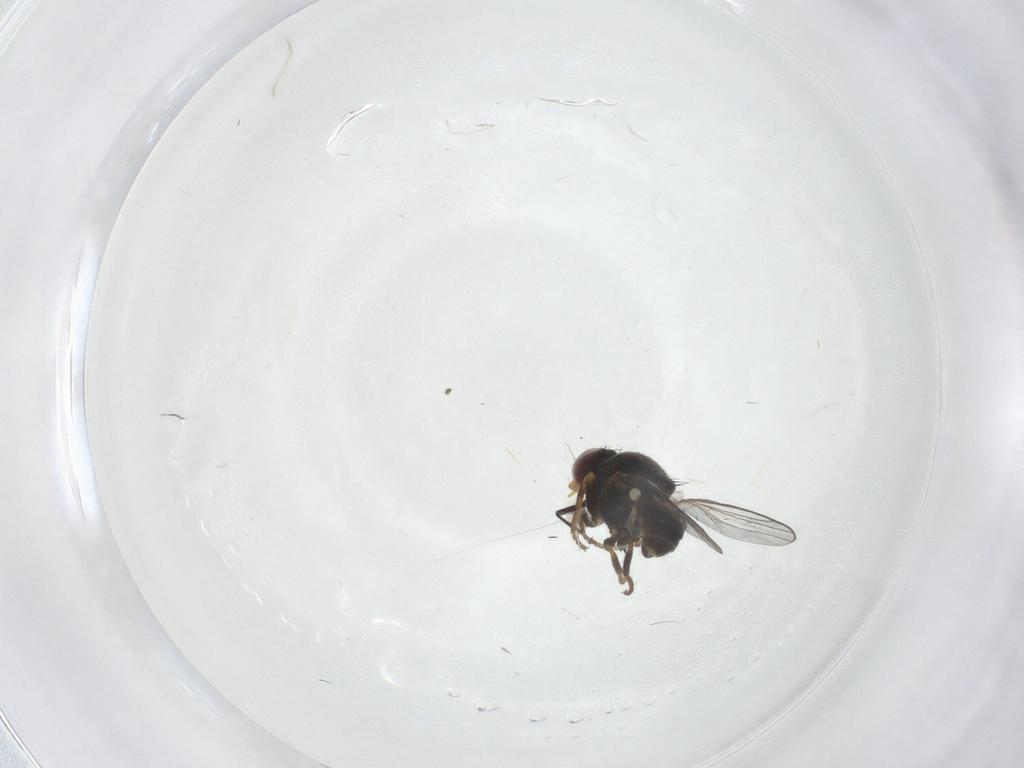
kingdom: Animalia
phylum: Arthropoda
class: Insecta
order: Diptera
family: Chloropidae
